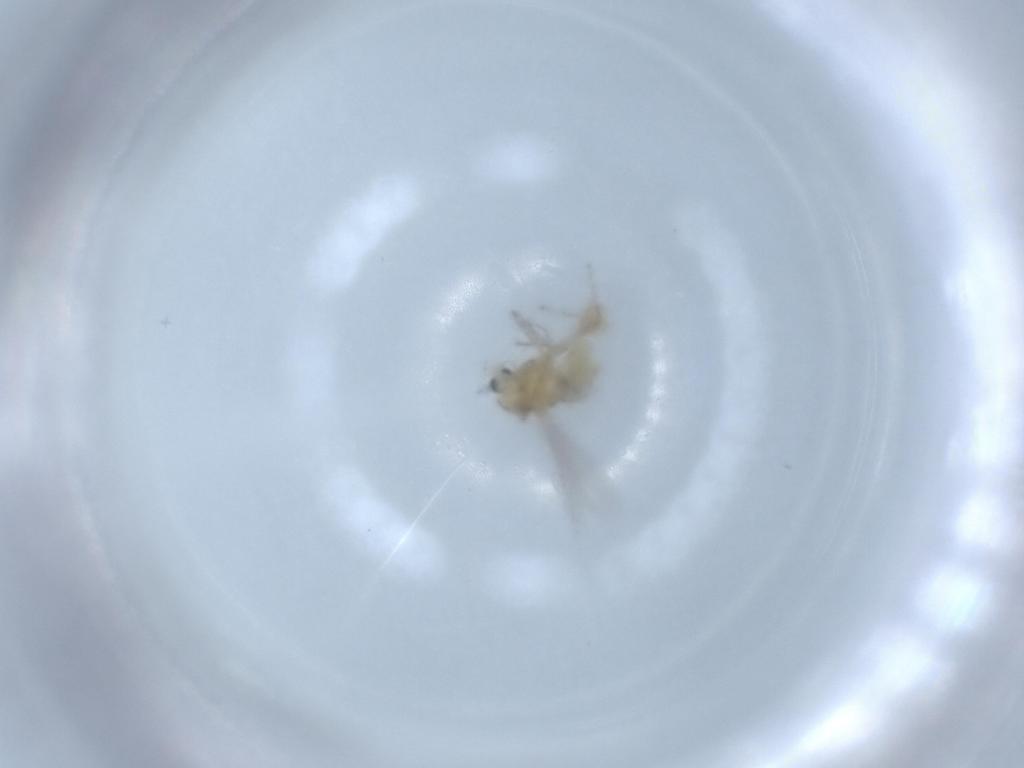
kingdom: Animalia
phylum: Arthropoda
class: Insecta
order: Diptera
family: Chironomidae
